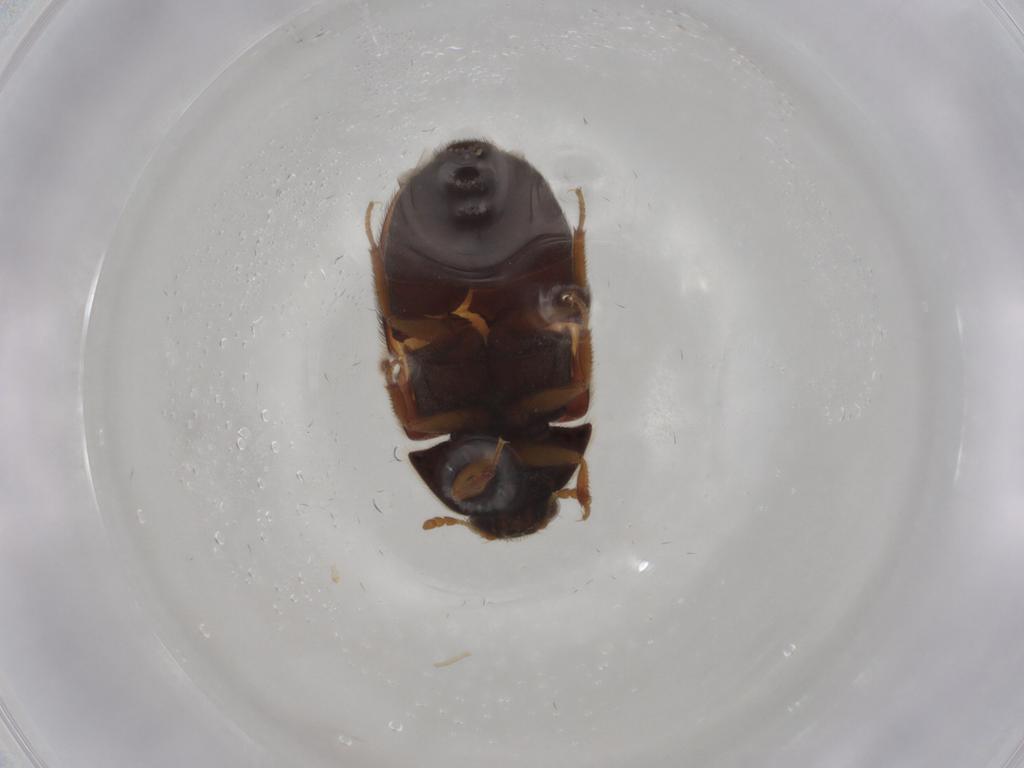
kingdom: Animalia
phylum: Arthropoda
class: Insecta
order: Coleoptera
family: Dermestidae
